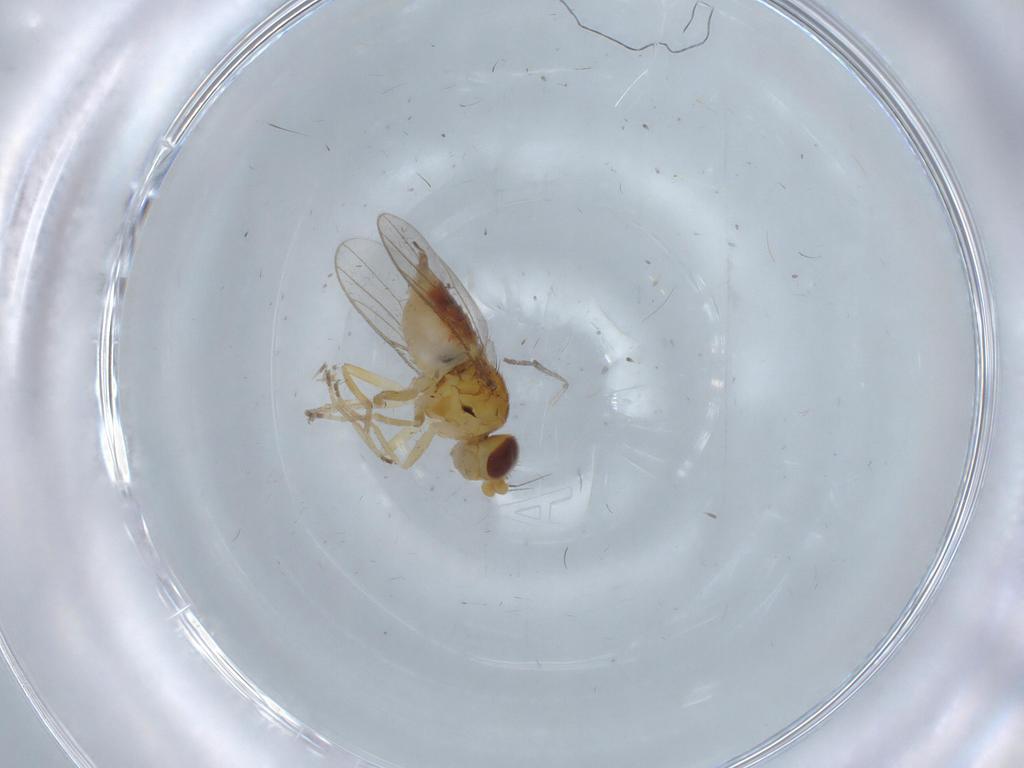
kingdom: Animalia
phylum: Arthropoda
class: Insecta
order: Diptera
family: Chloropidae
